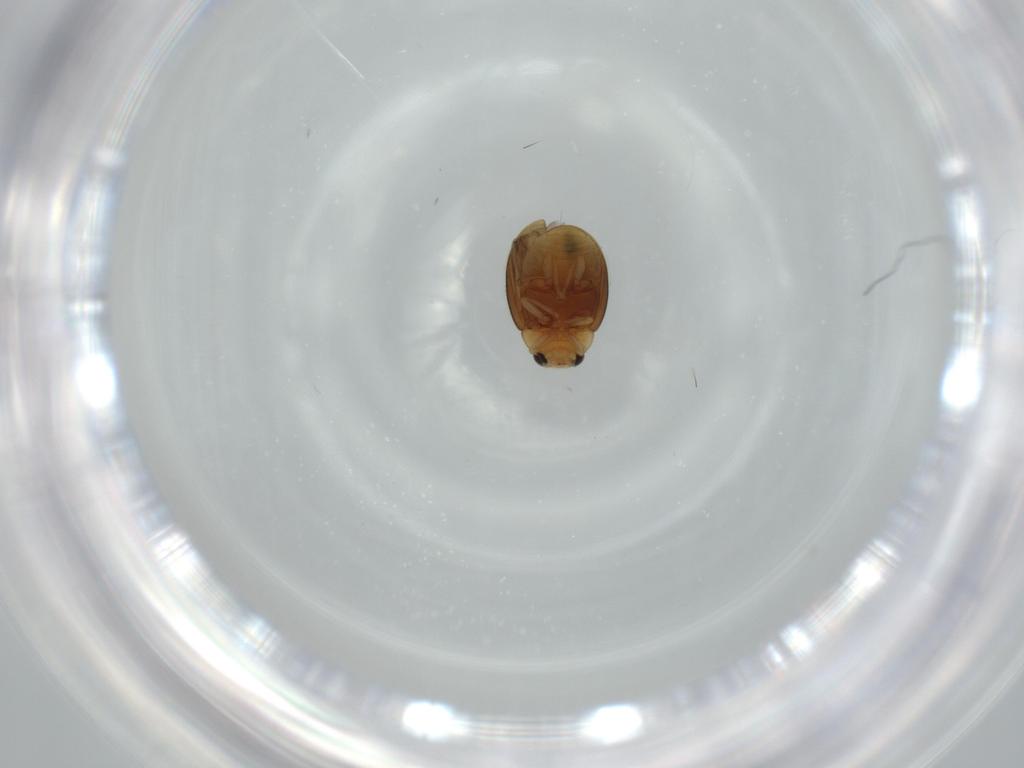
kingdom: Animalia
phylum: Arthropoda
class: Insecta
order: Coleoptera
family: Coccinellidae
